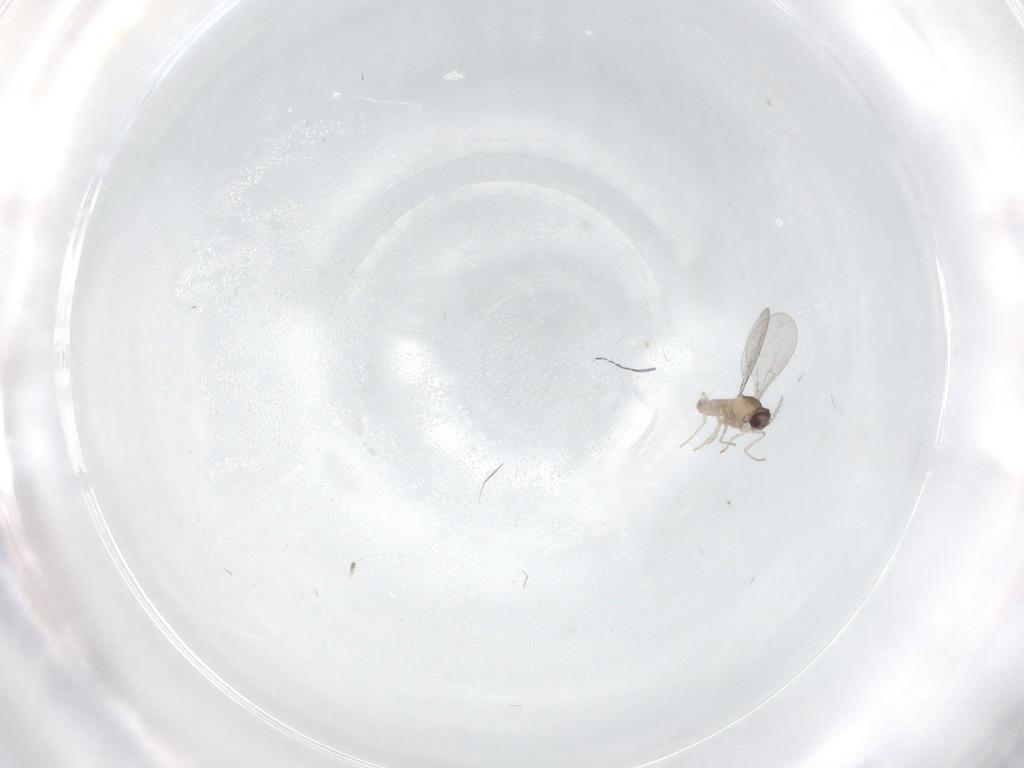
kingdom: Animalia
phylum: Arthropoda
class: Insecta
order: Diptera
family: Cecidomyiidae
